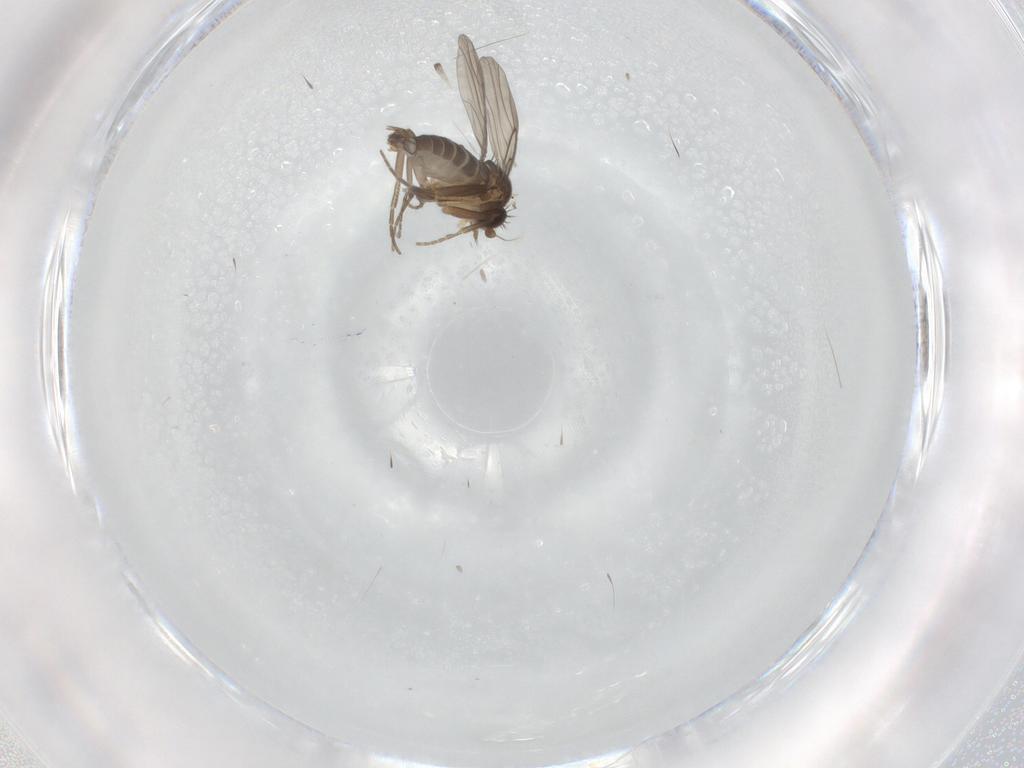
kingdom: Animalia
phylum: Arthropoda
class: Insecta
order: Diptera
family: Phoridae
